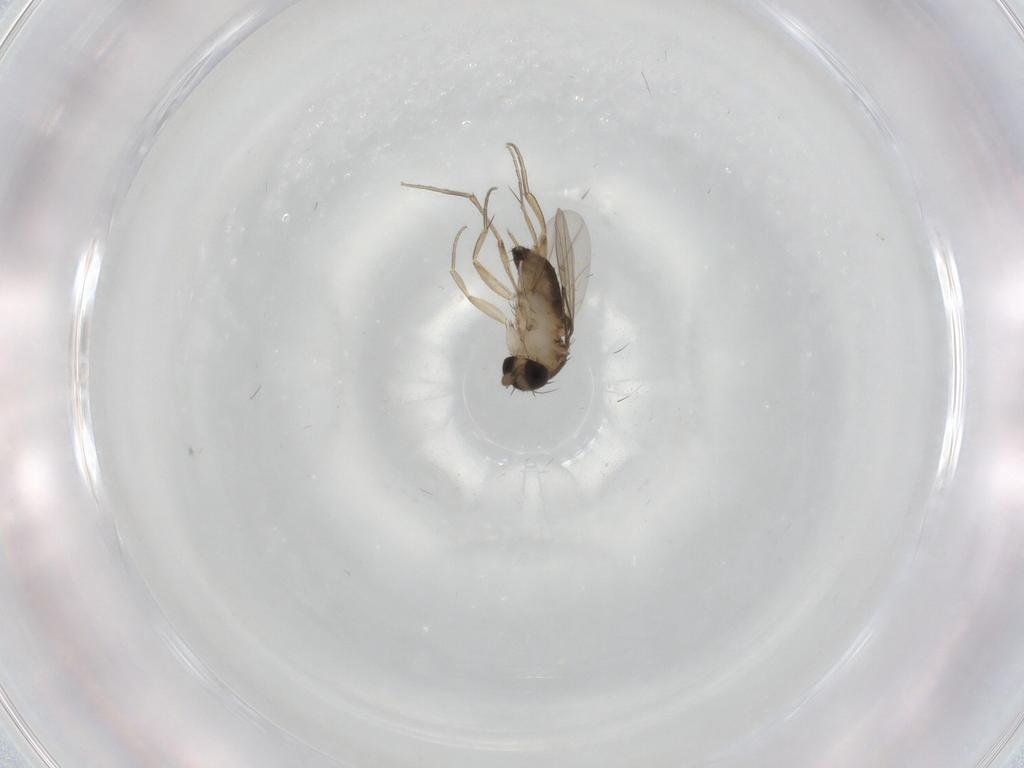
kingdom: Animalia
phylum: Arthropoda
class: Insecta
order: Diptera
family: Phoridae
